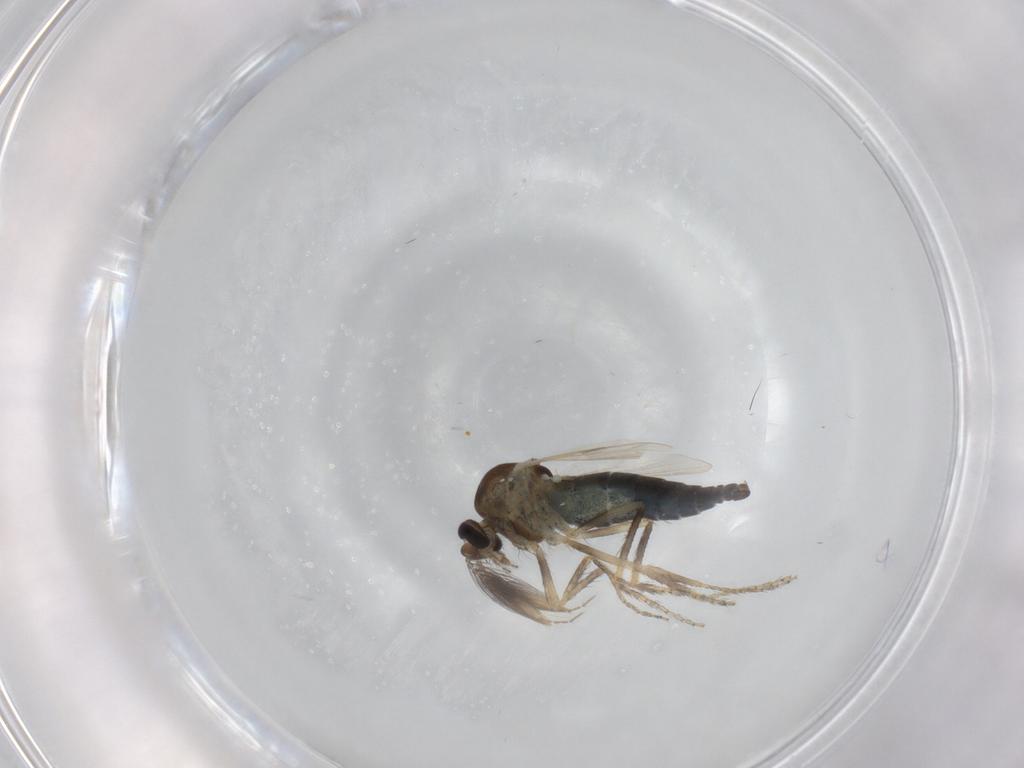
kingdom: Animalia
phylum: Arthropoda
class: Insecta
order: Diptera
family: Ceratopogonidae
